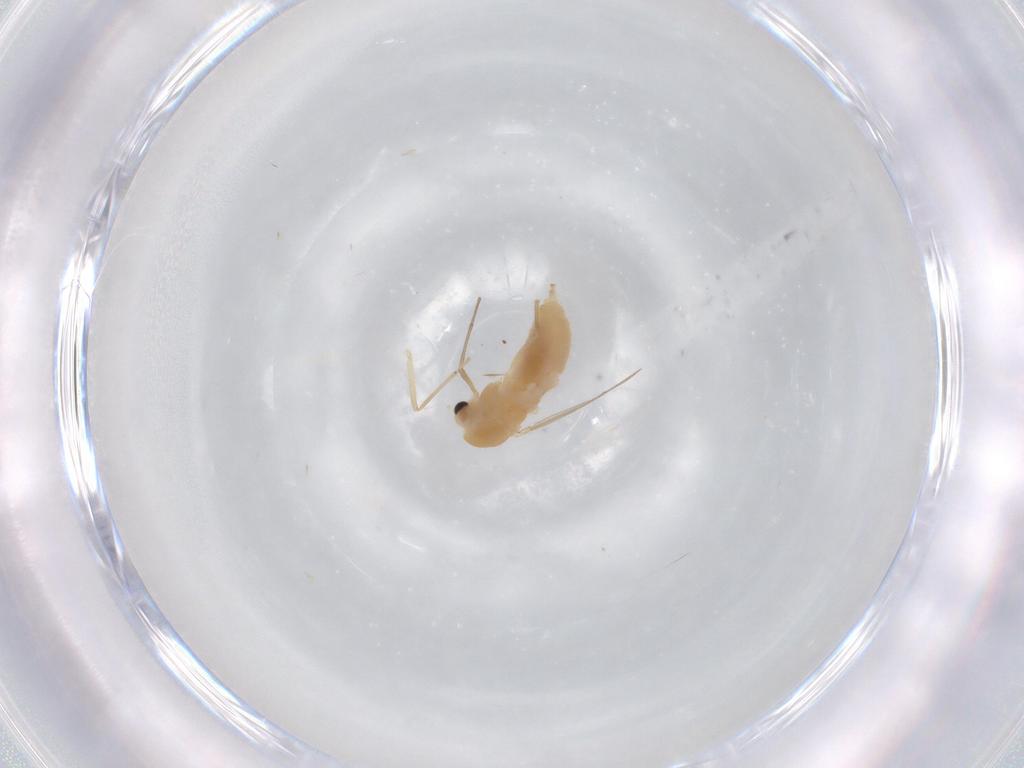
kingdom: Animalia
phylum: Arthropoda
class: Insecta
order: Diptera
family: Chironomidae
